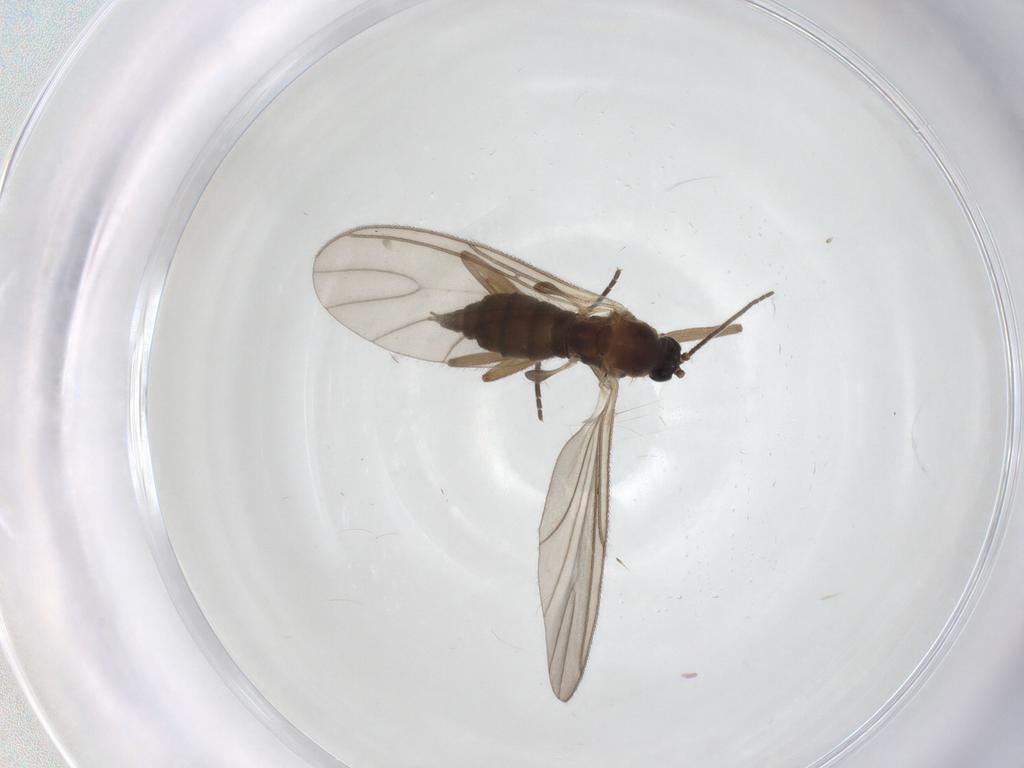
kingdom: Animalia
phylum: Arthropoda
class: Insecta
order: Diptera
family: Sciaridae
